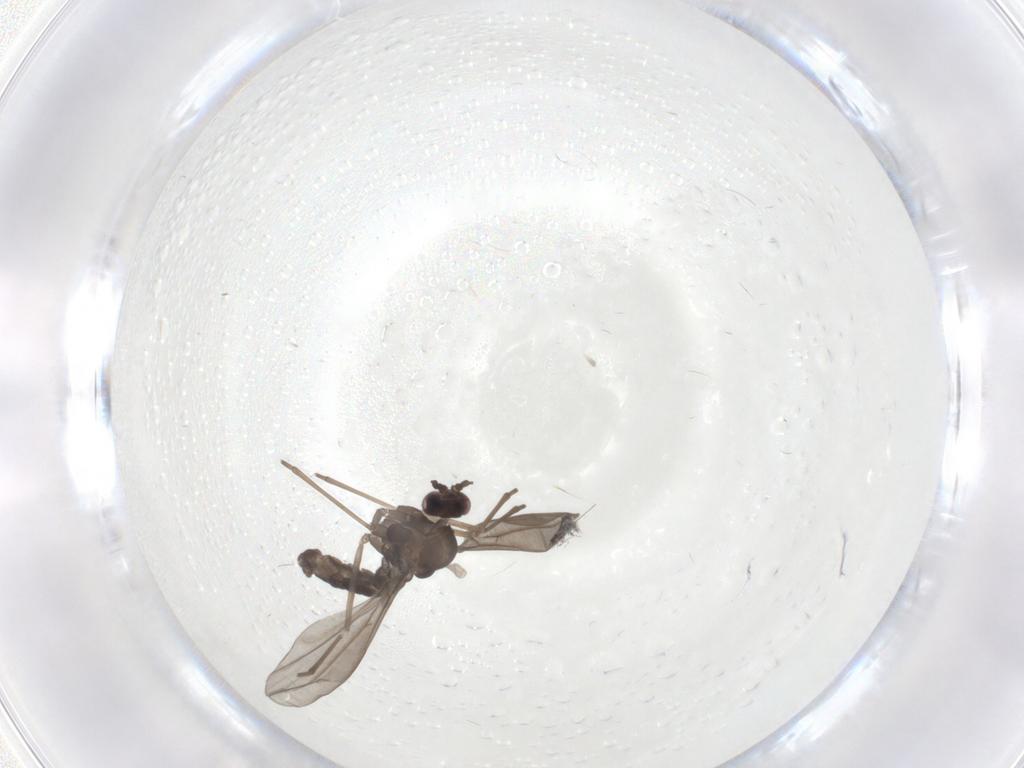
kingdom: Animalia
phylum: Arthropoda
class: Insecta
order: Diptera
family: Cecidomyiidae
